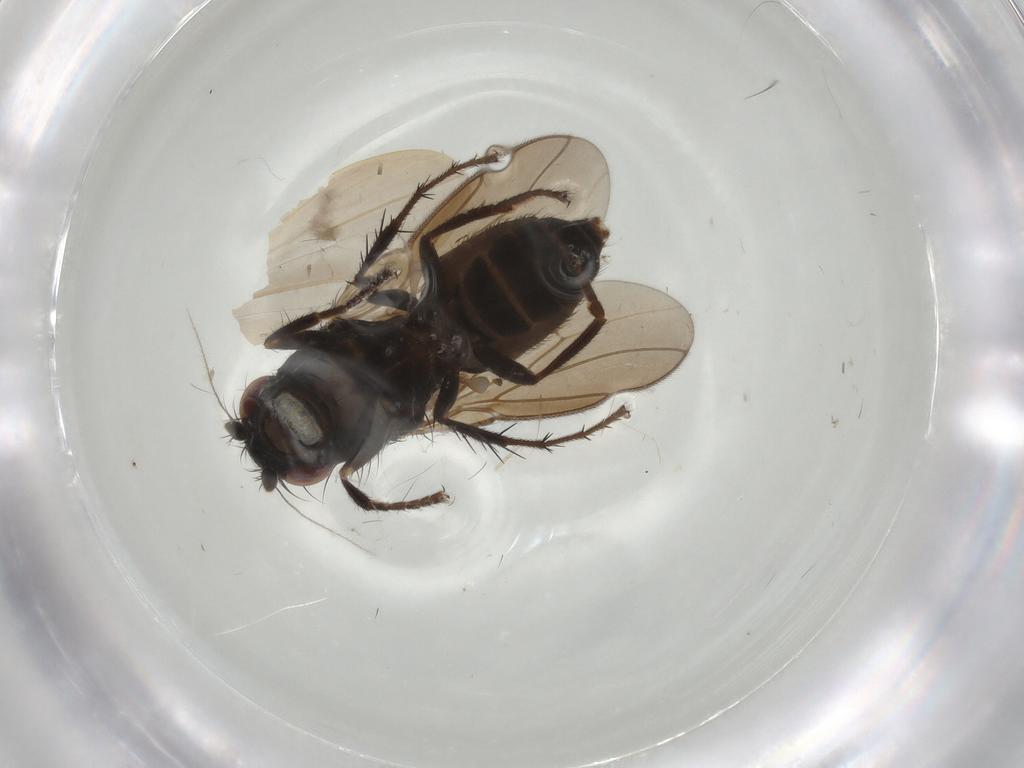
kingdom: Animalia
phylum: Arthropoda
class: Insecta
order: Diptera
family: Sphaeroceridae
